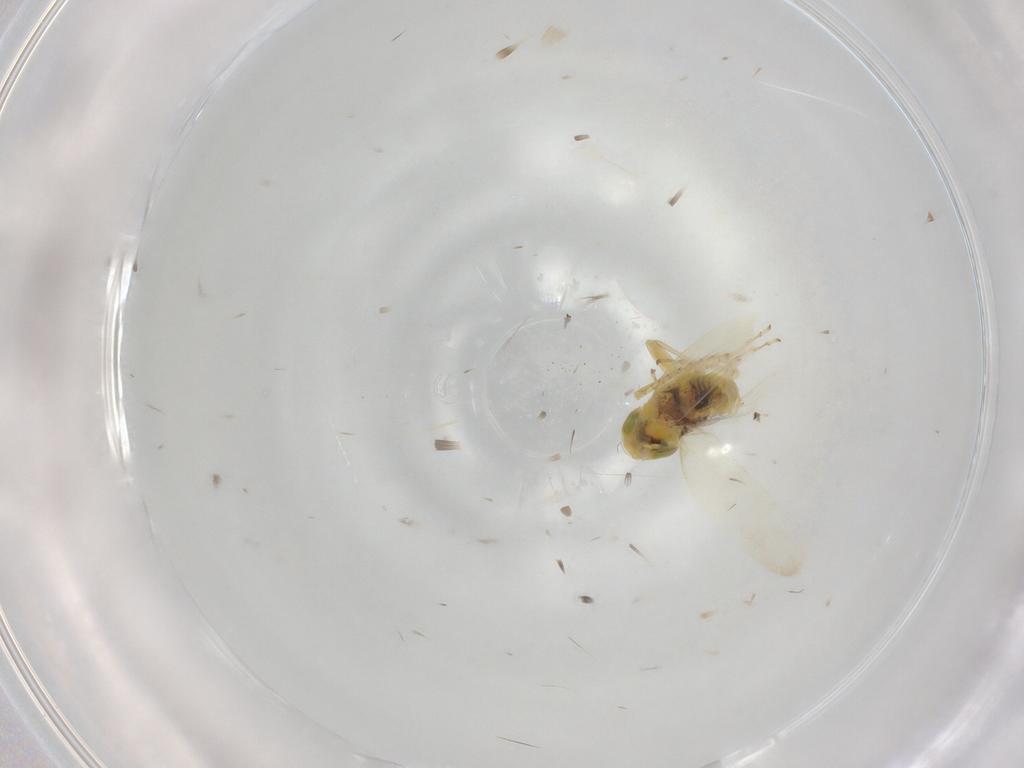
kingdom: Animalia
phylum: Arthropoda
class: Insecta
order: Hemiptera
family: Cicadellidae
